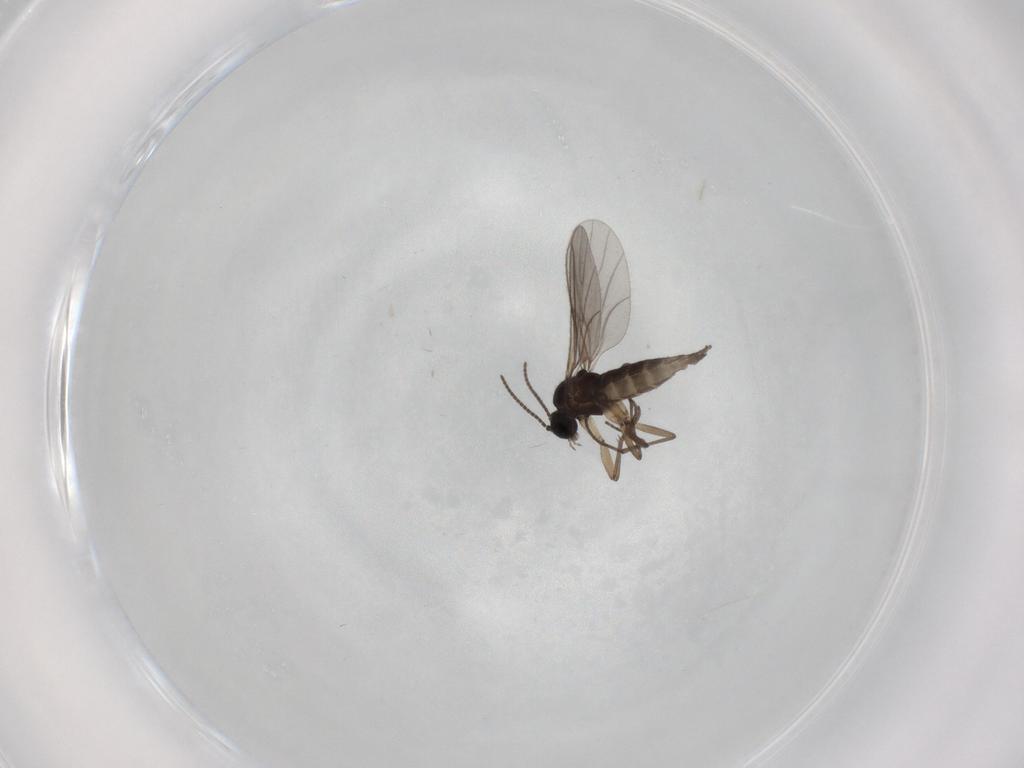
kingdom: Animalia
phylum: Arthropoda
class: Insecta
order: Diptera
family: Sciaridae
